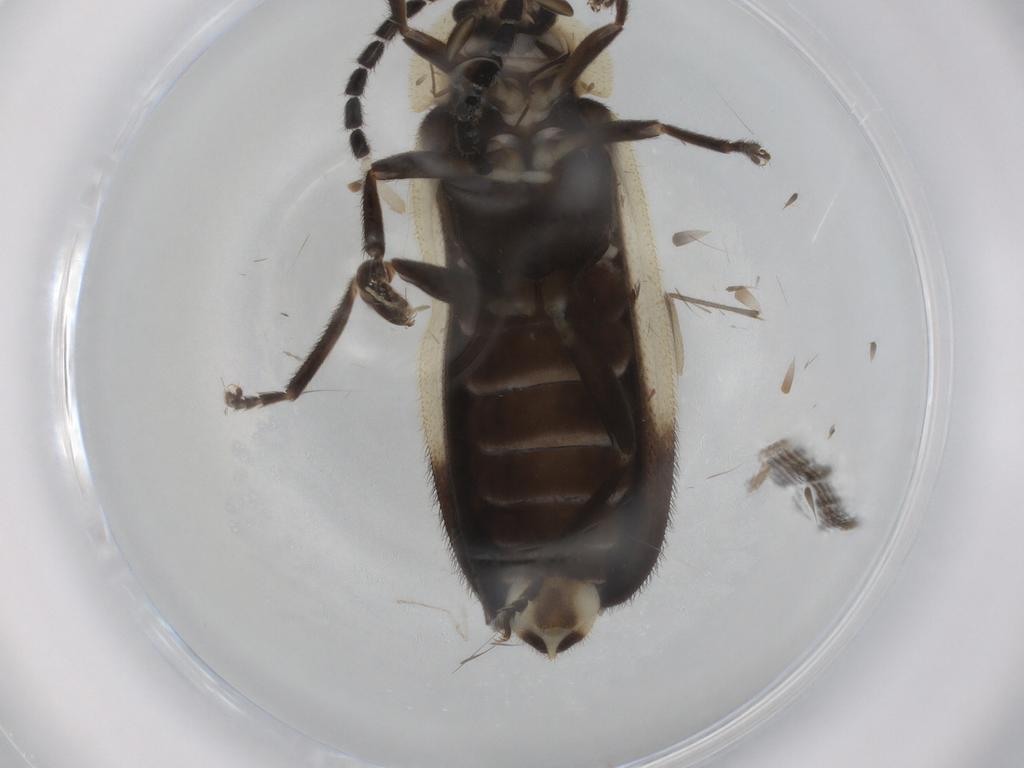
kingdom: Animalia
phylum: Arthropoda
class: Insecta
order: Coleoptera
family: Lampyridae
